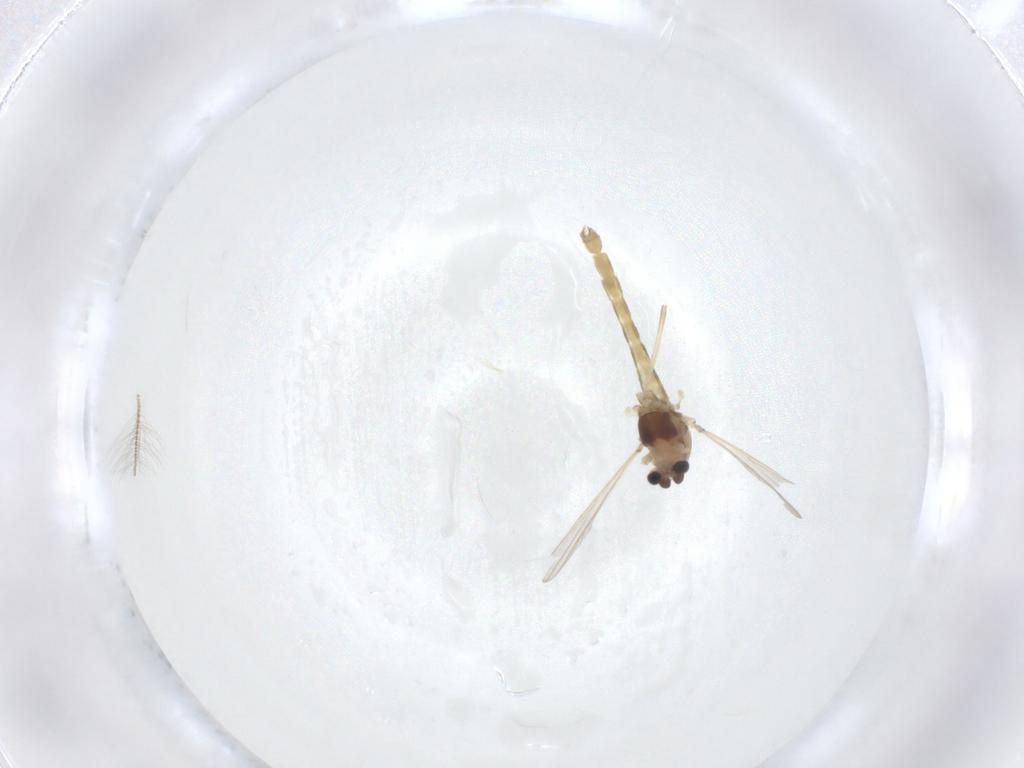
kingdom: Animalia
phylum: Arthropoda
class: Insecta
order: Diptera
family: Chironomidae
